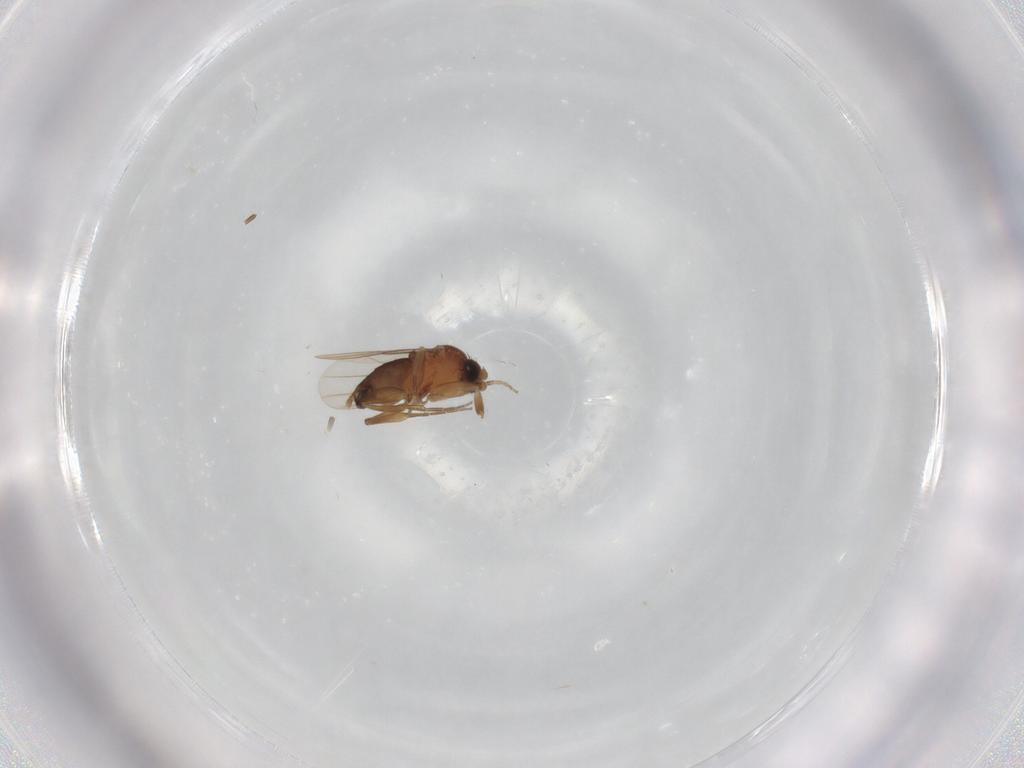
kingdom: Animalia
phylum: Arthropoda
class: Insecta
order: Diptera
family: Phoridae
